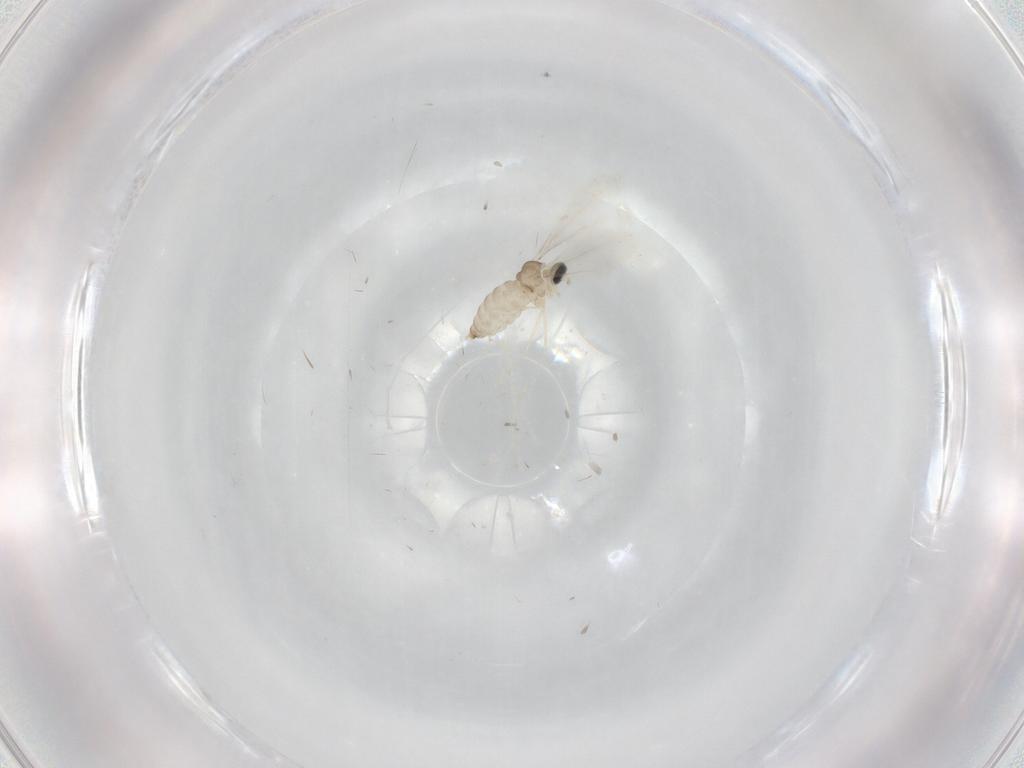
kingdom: Animalia
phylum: Arthropoda
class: Insecta
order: Diptera
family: Cecidomyiidae
